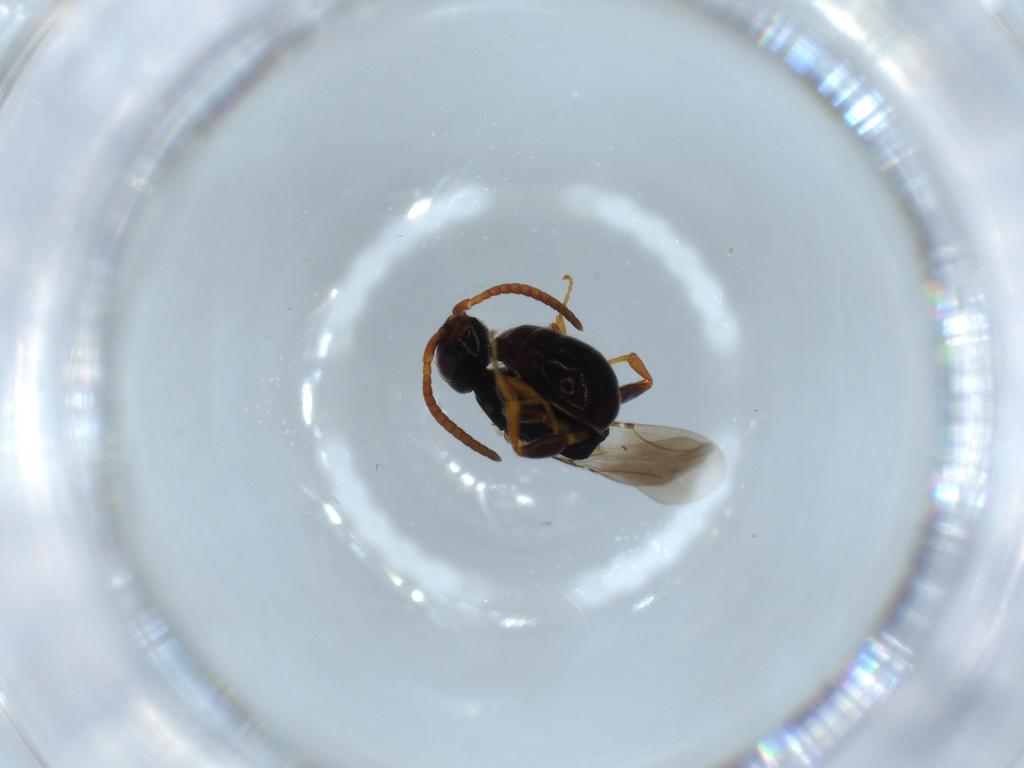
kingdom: Animalia
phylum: Arthropoda
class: Insecta
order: Hymenoptera
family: Bethylidae
